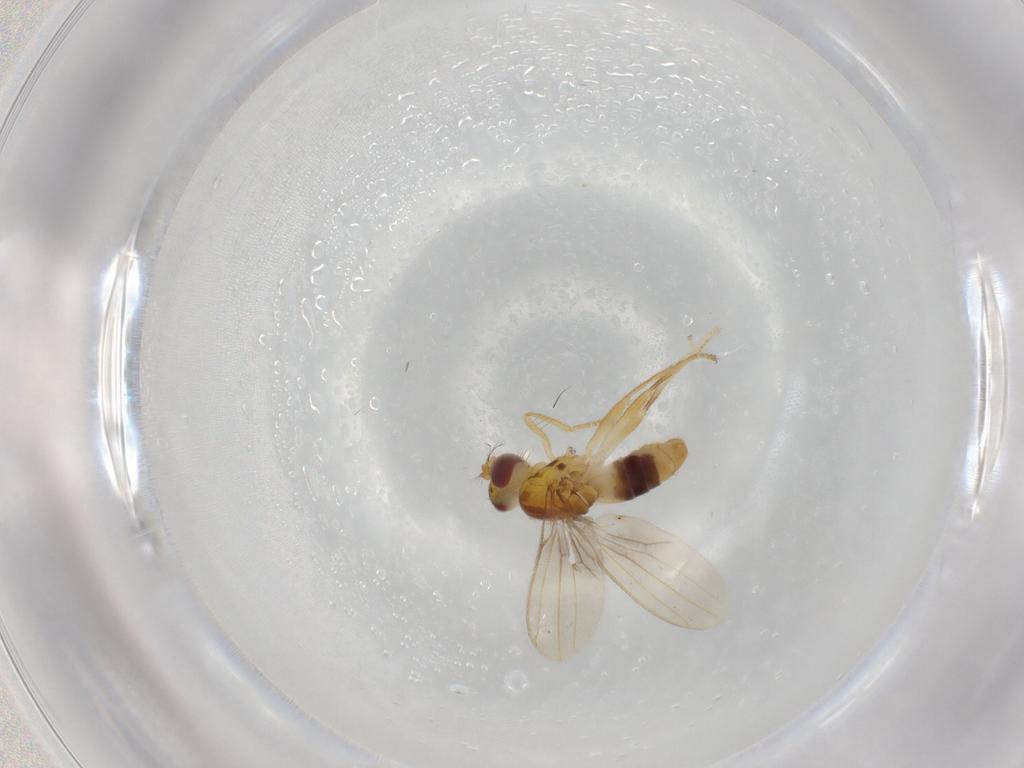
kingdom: Animalia
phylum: Arthropoda
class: Insecta
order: Diptera
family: Periscelididae
